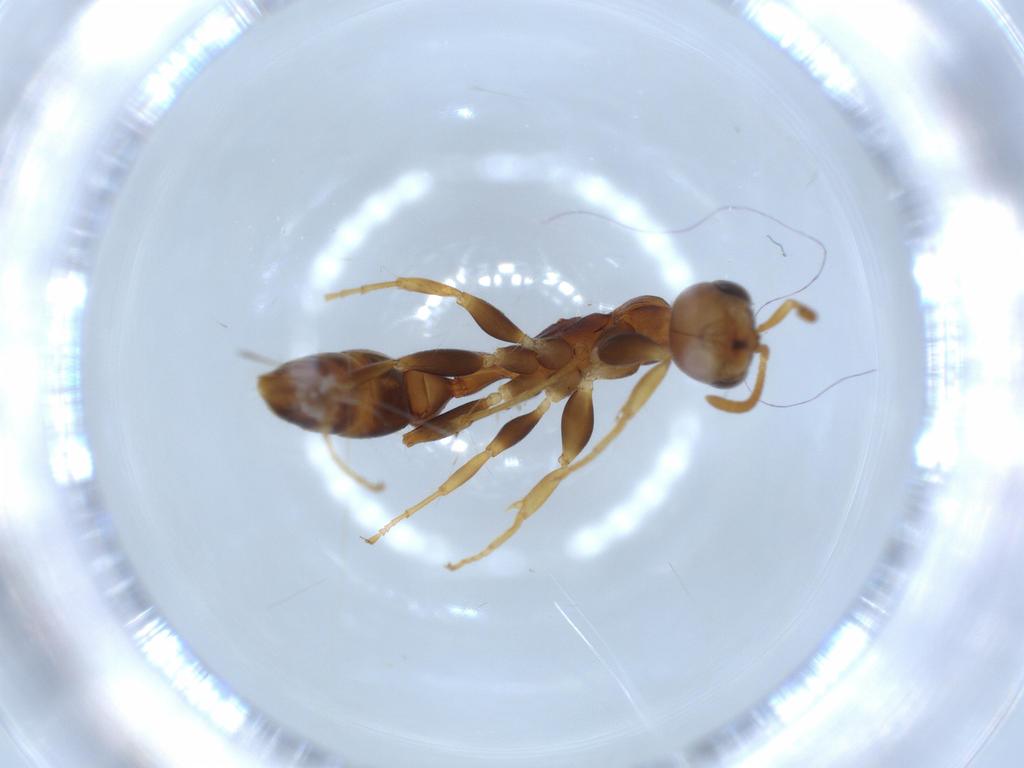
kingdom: Animalia
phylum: Arthropoda
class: Insecta
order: Hymenoptera
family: Formicidae
